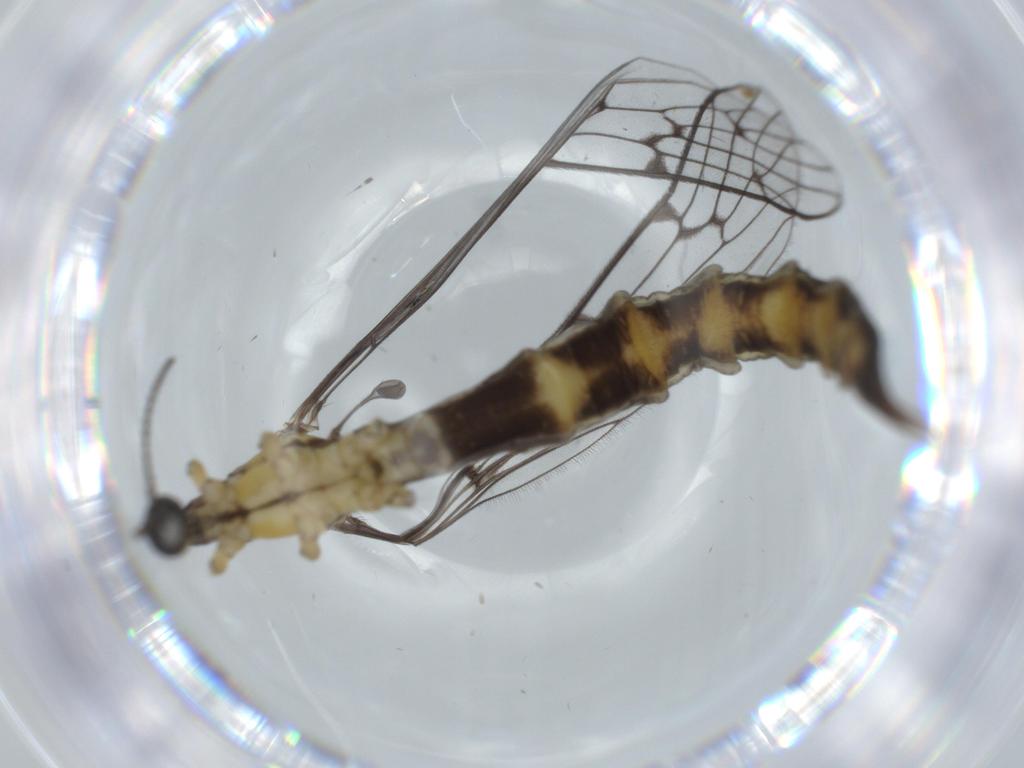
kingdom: Animalia
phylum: Arthropoda
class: Insecta
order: Diptera
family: Limoniidae
